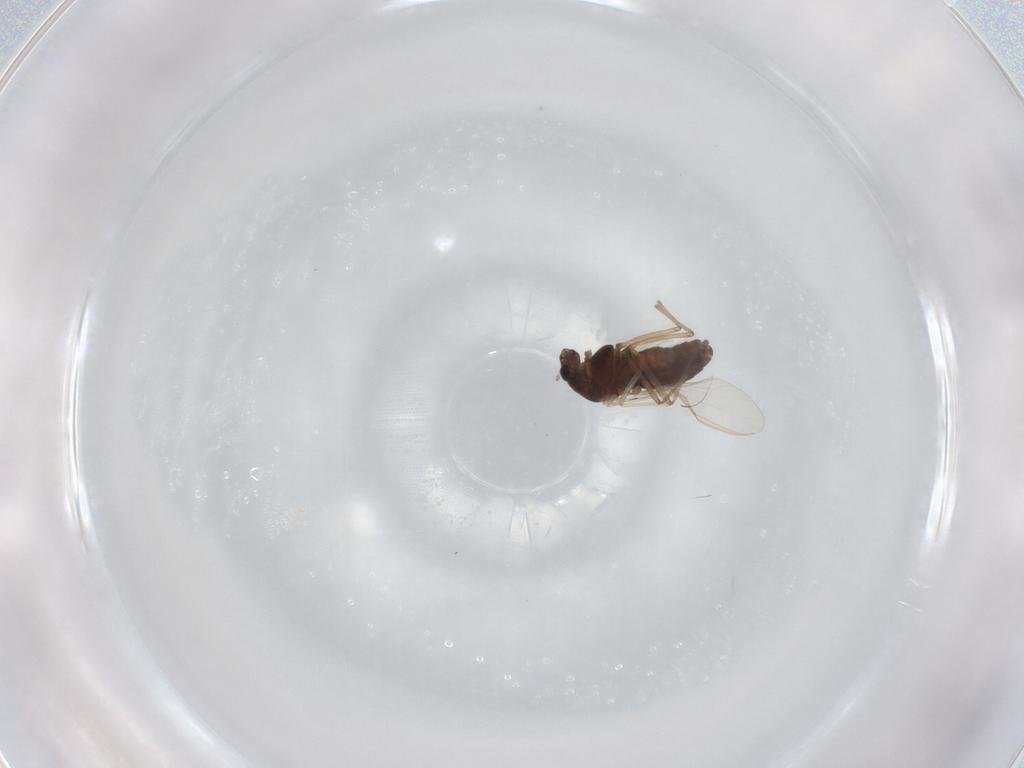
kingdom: Animalia
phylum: Arthropoda
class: Insecta
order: Diptera
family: Chironomidae
